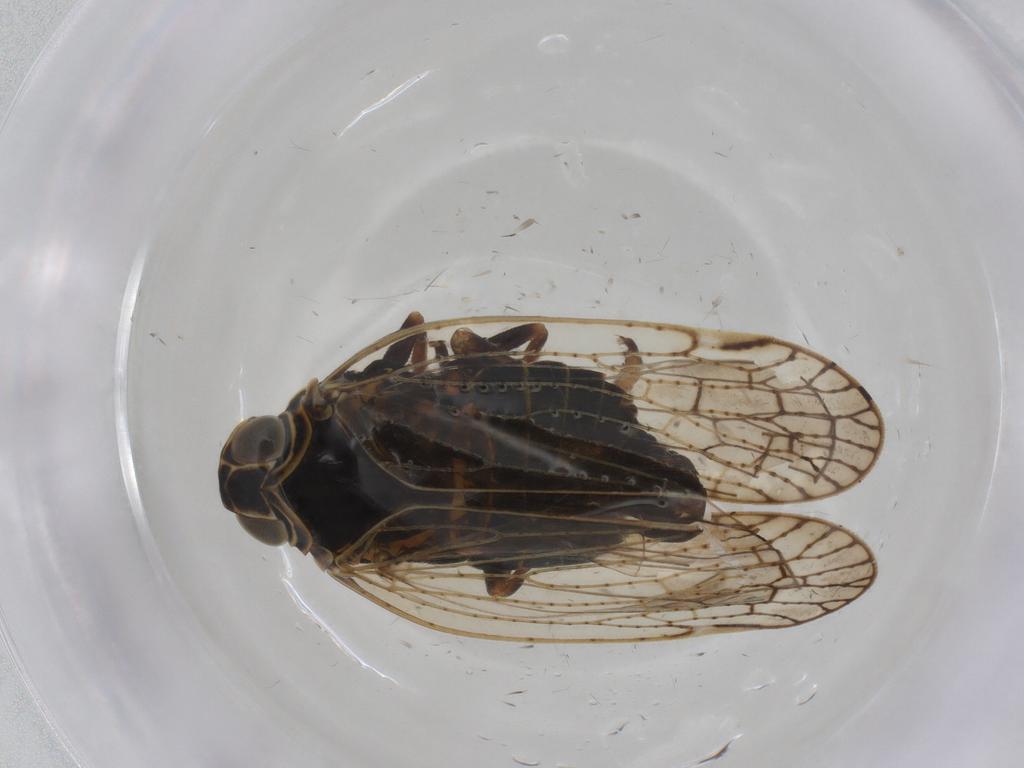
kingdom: Animalia
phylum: Arthropoda
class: Insecta
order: Hemiptera
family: Cixiidae
